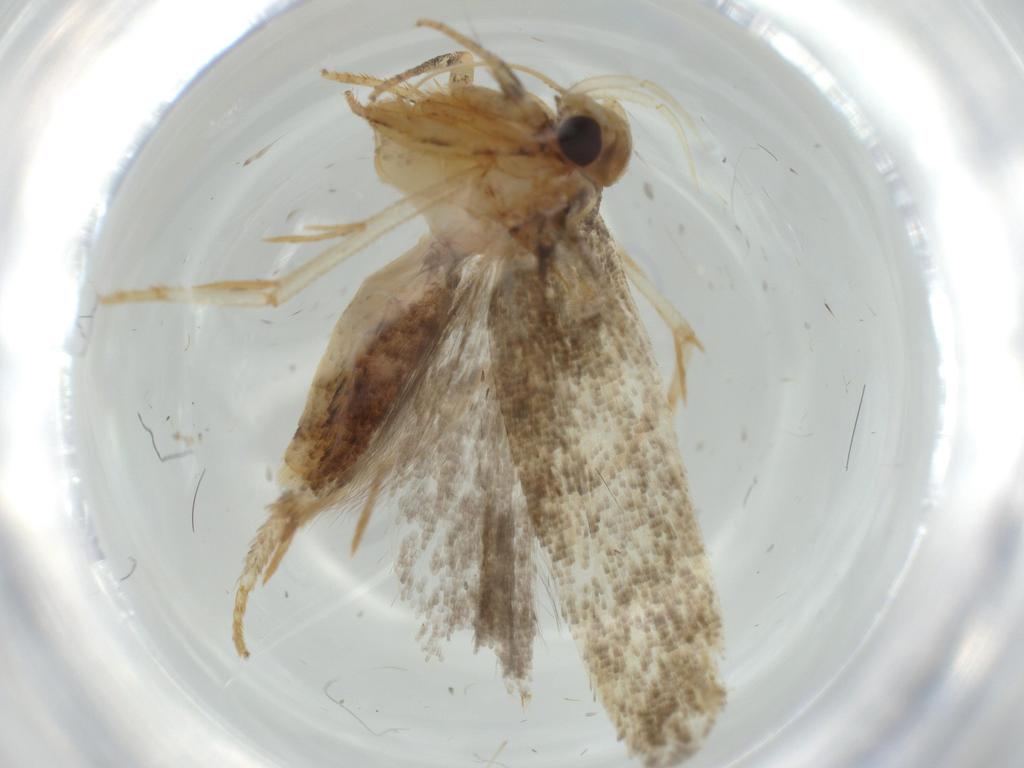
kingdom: Animalia
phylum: Arthropoda
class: Insecta
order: Lepidoptera
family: Autostichidae
